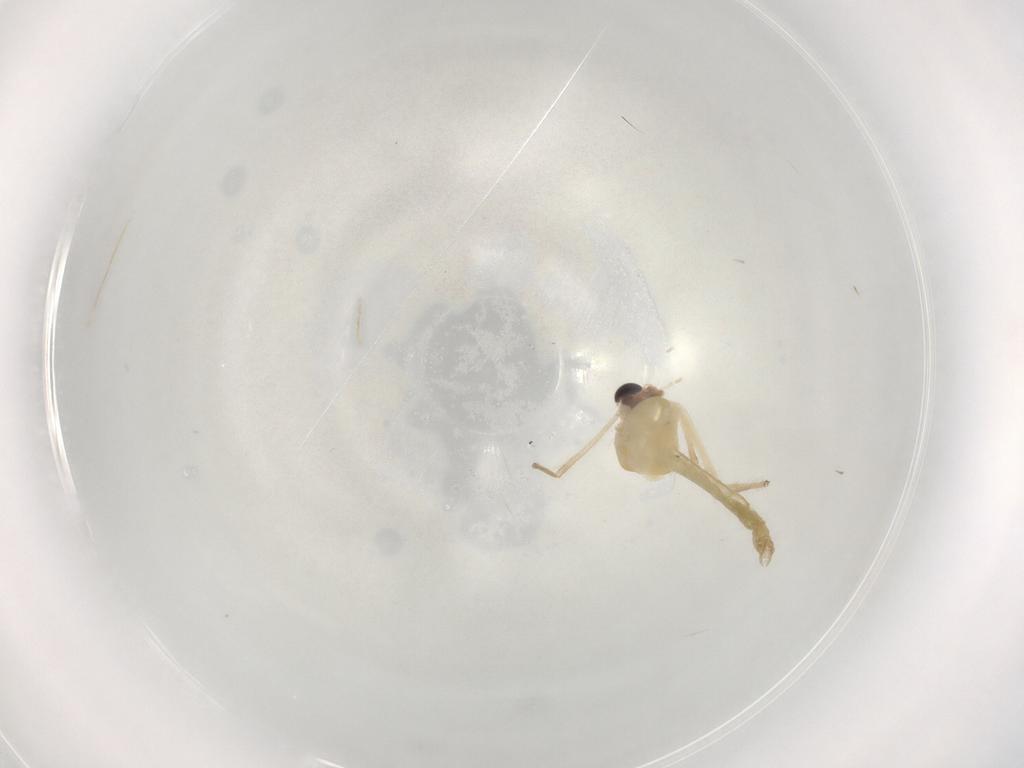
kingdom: Animalia
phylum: Arthropoda
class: Insecta
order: Diptera
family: Chironomidae
